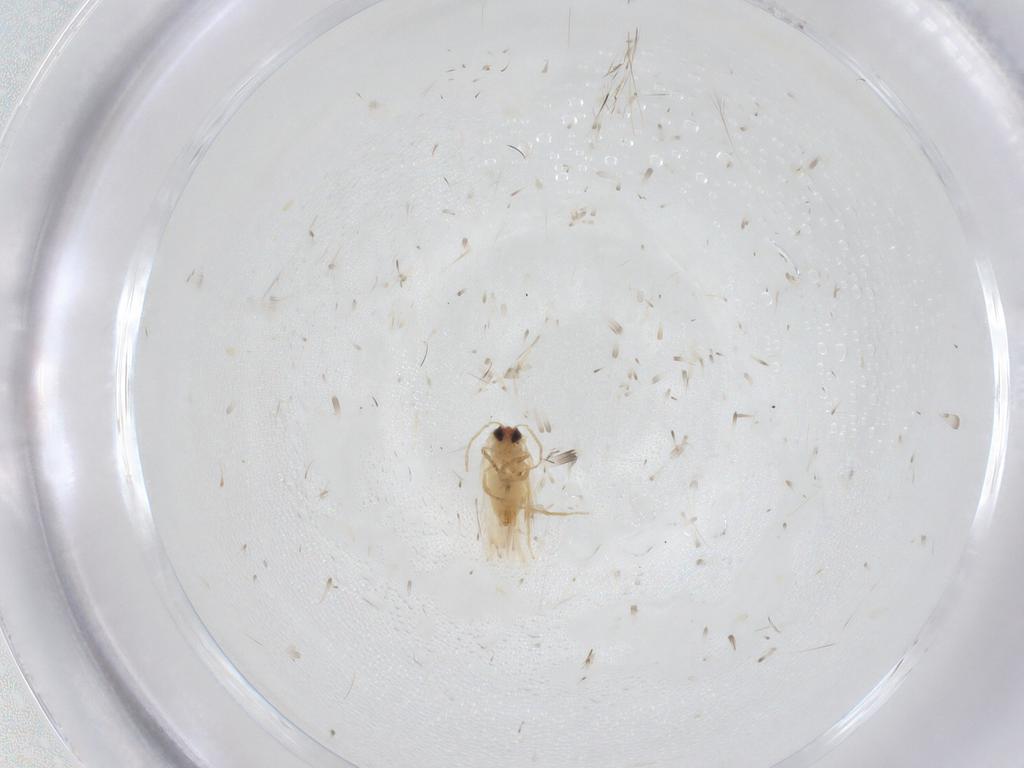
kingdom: Animalia
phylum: Arthropoda
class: Insecta
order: Lepidoptera
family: Crambidae
